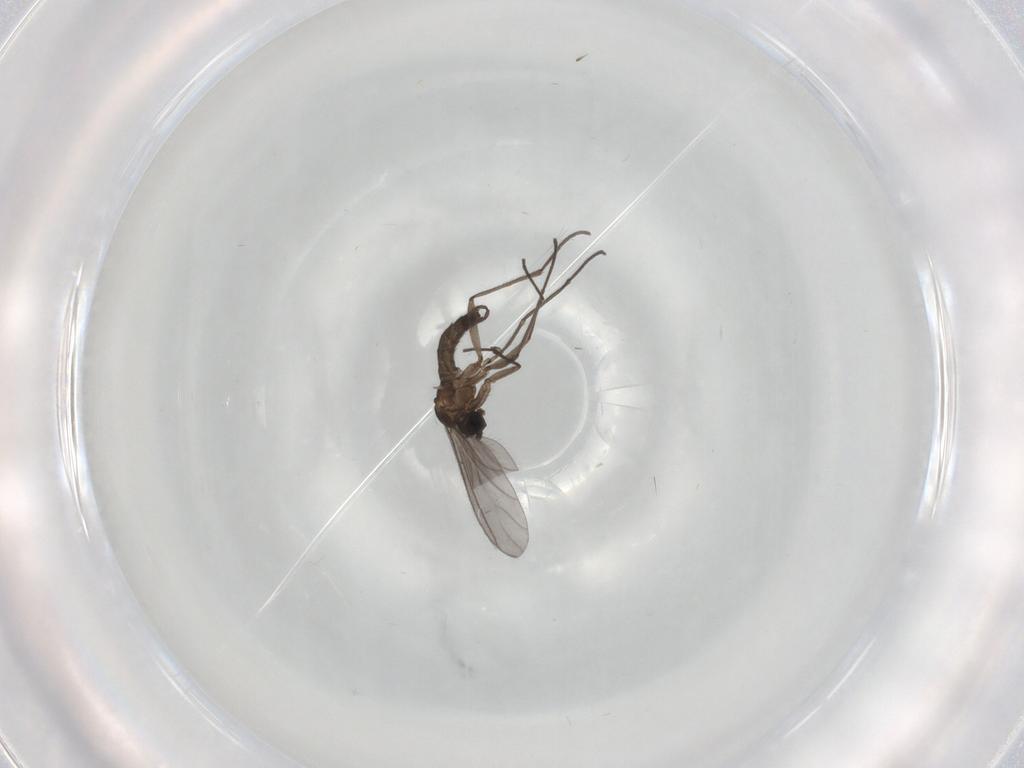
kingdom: Animalia
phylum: Arthropoda
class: Insecta
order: Diptera
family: Sciaridae
